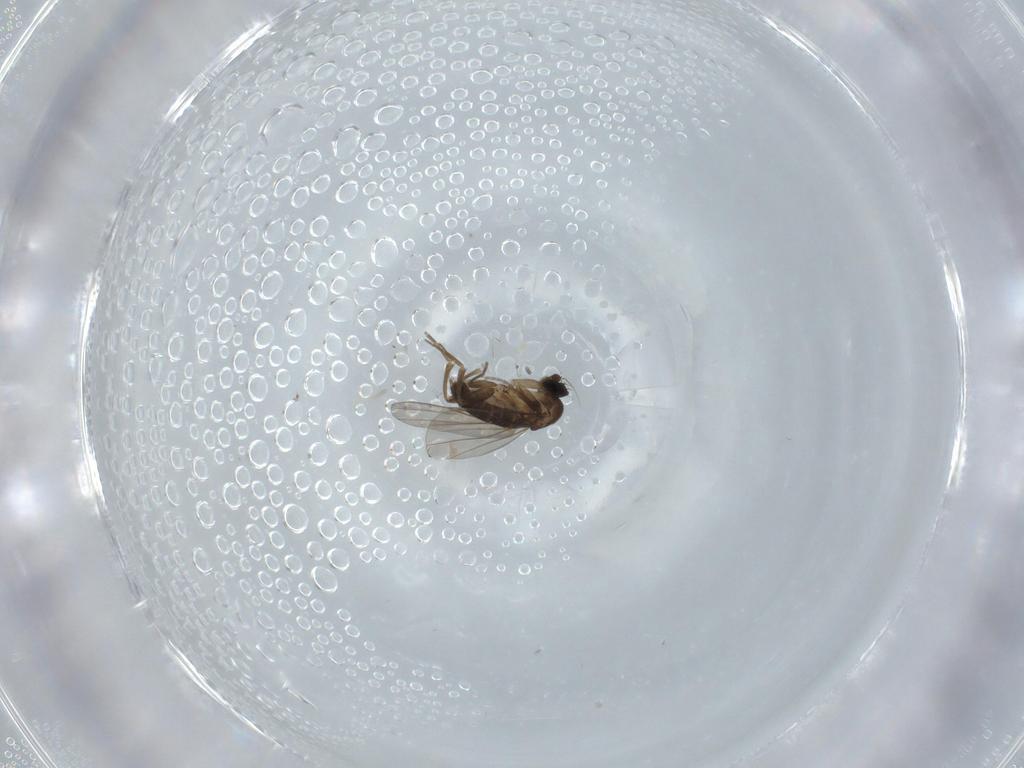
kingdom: Animalia
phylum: Arthropoda
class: Insecta
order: Diptera
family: Phoridae
